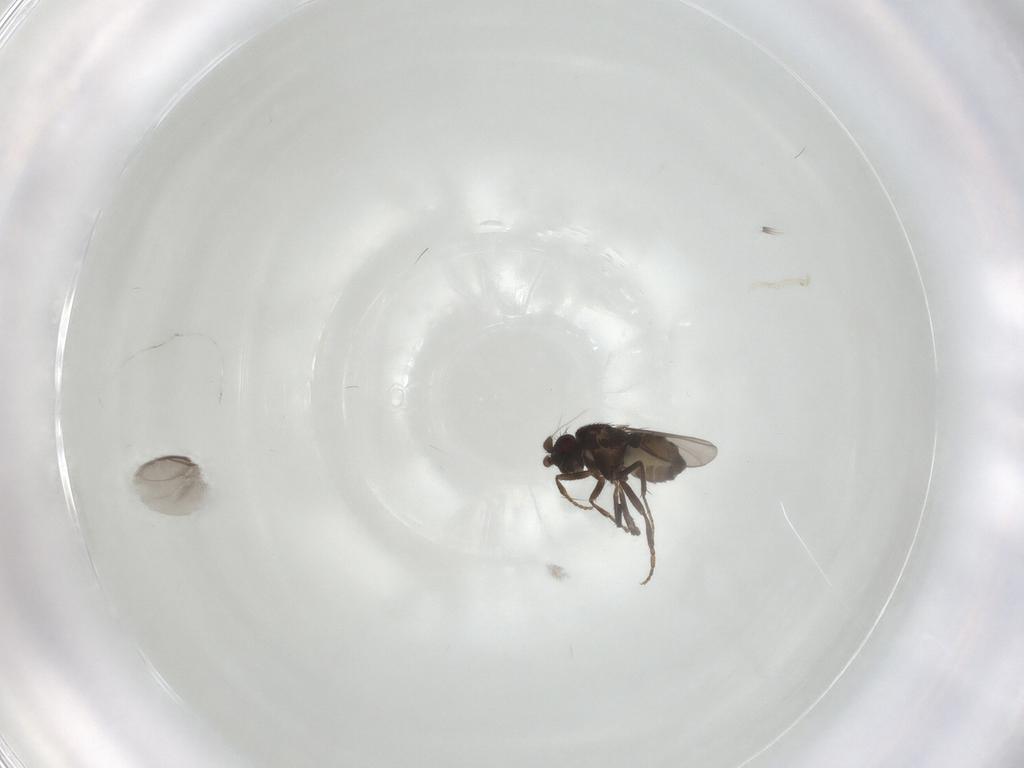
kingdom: Animalia
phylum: Arthropoda
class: Insecta
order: Diptera
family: Sphaeroceridae
